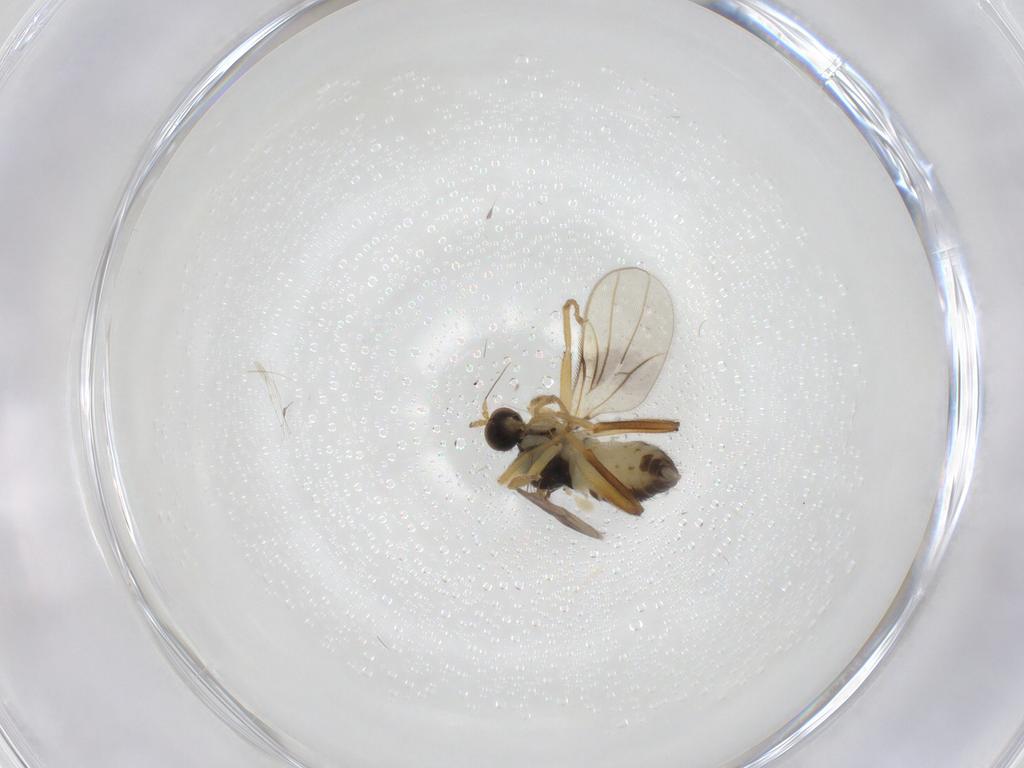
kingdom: Animalia
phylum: Arthropoda
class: Insecta
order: Diptera
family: Hybotidae
